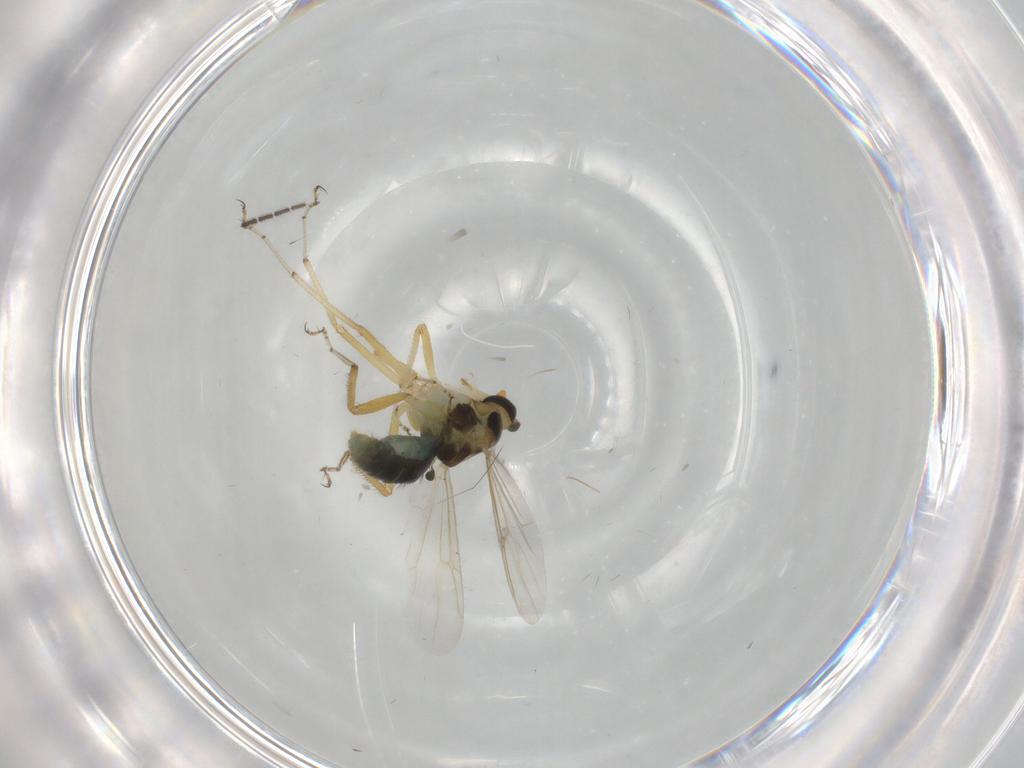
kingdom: Animalia
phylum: Arthropoda
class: Insecta
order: Diptera
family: Ceratopogonidae
